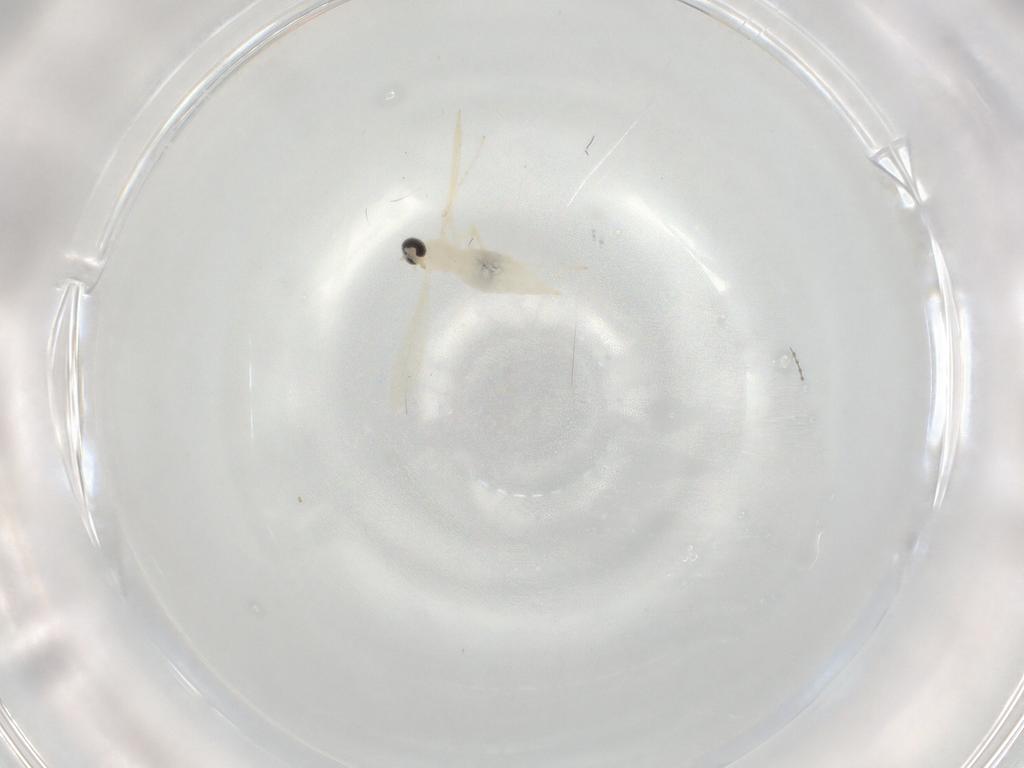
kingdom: Animalia
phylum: Arthropoda
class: Insecta
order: Diptera
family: Cecidomyiidae
